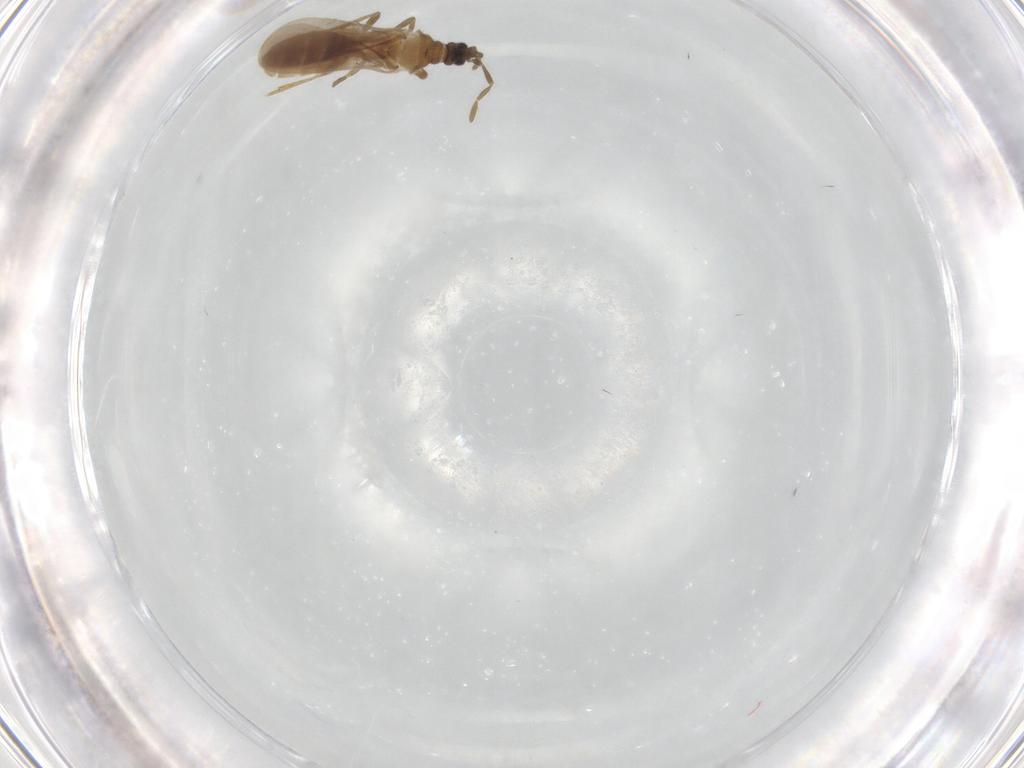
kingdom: Animalia
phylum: Arthropoda
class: Insecta
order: Hemiptera
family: Enicocephalidae
